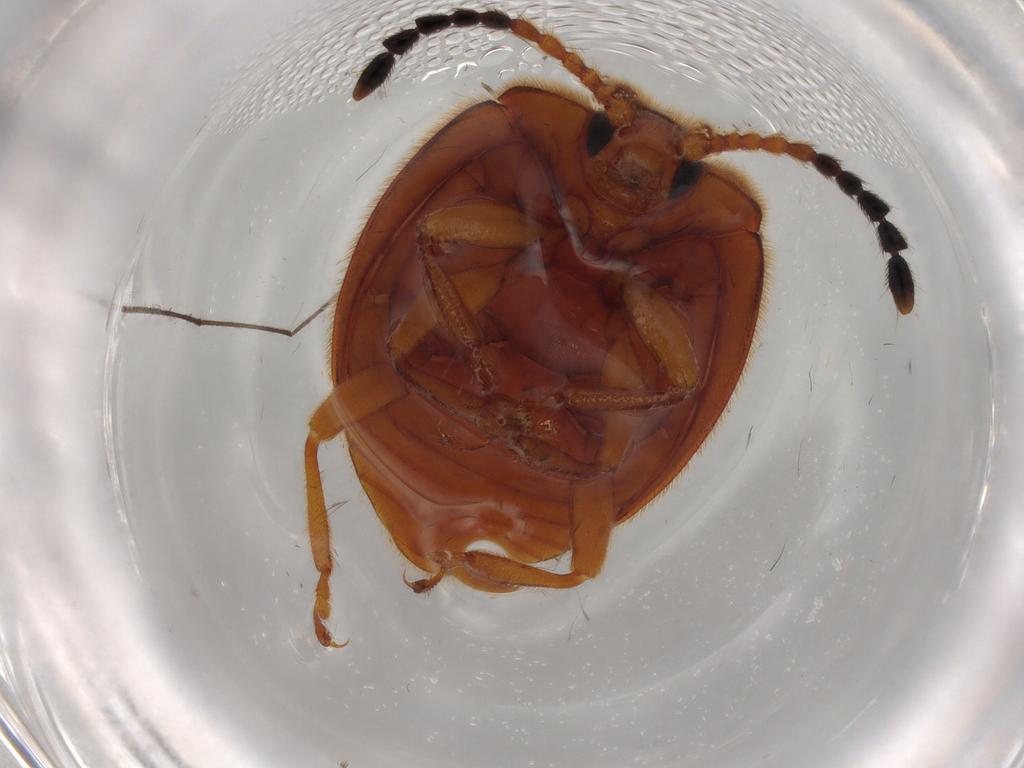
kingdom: Animalia
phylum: Arthropoda
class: Insecta
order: Coleoptera
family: Endomychidae
